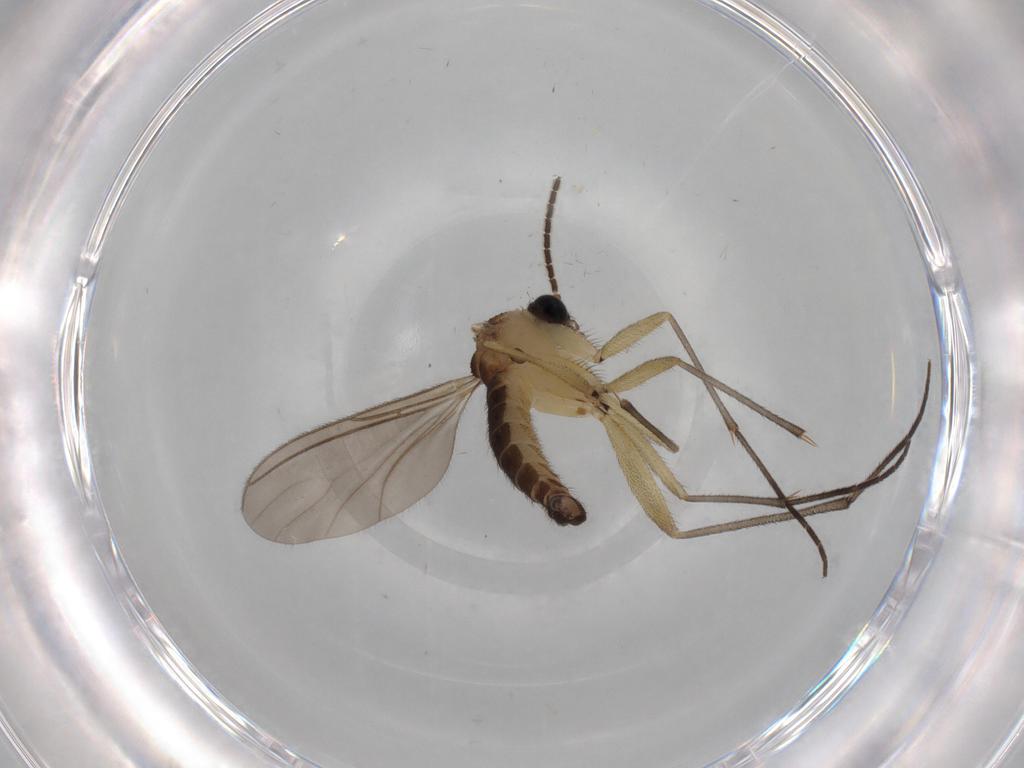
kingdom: Animalia
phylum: Arthropoda
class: Insecta
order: Diptera
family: Sciaridae
